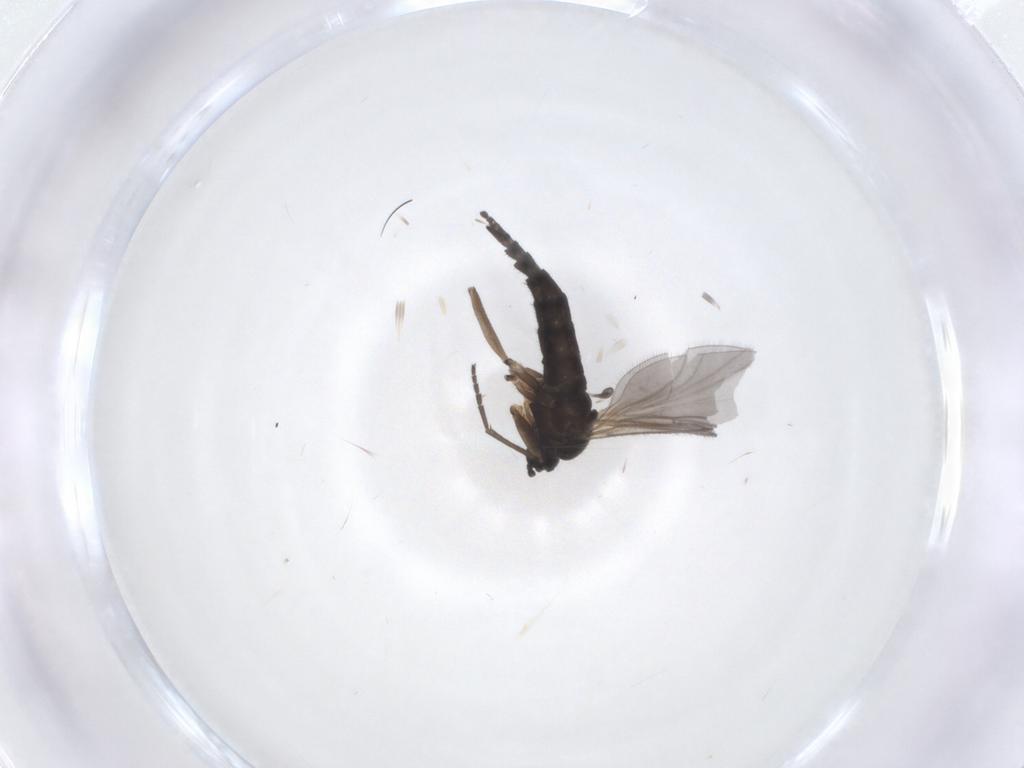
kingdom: Animalia
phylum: Arthropoda
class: Insecta
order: Diptera
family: Sciaridae
